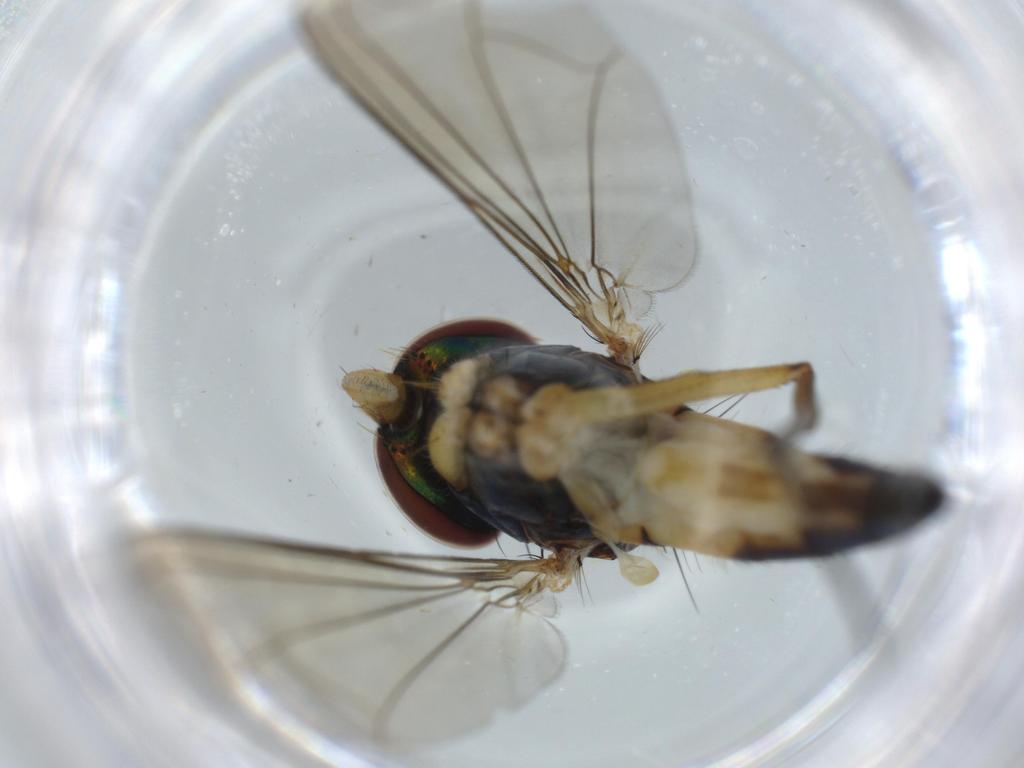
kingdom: Animalia
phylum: Arthropoda
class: Insecta
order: Diptera
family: Dolichopodidae
